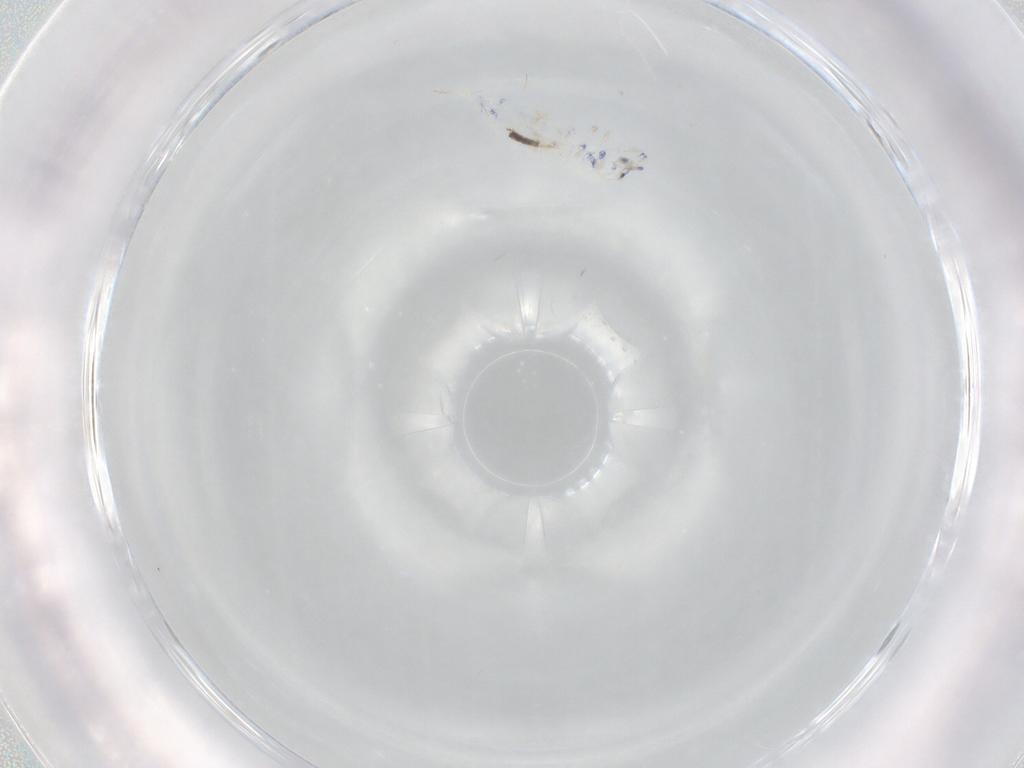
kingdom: Animalia
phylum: Arthropoda
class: Collembola
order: Entomobryomorpha
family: Entomobryidae
